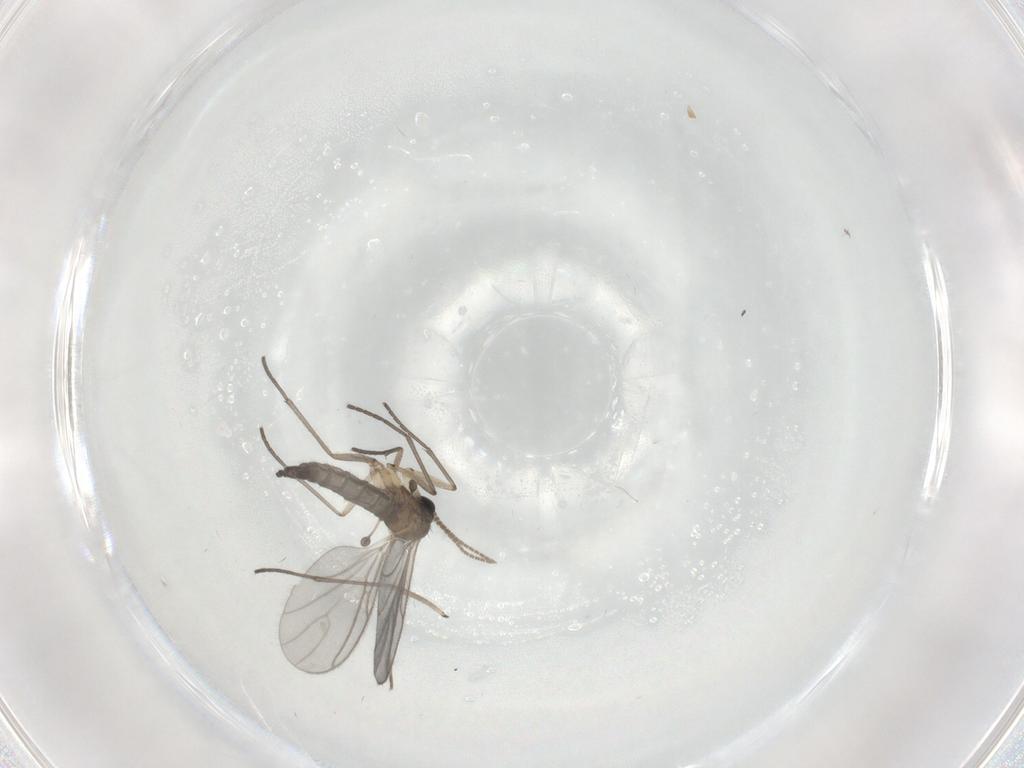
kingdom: Animalia
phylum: Arthropoda
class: Insecta
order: Diptera
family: Sciaridae
